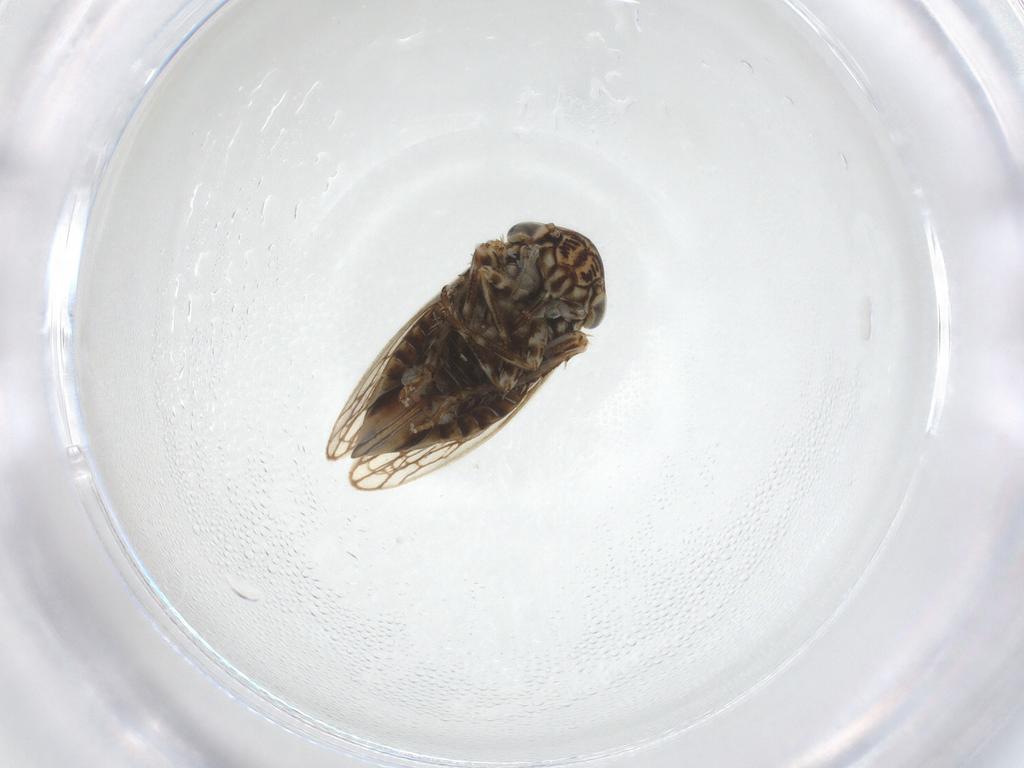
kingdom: Animalia
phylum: Arthropoda
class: Insecta
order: Hemiptera
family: Cicadellidae
